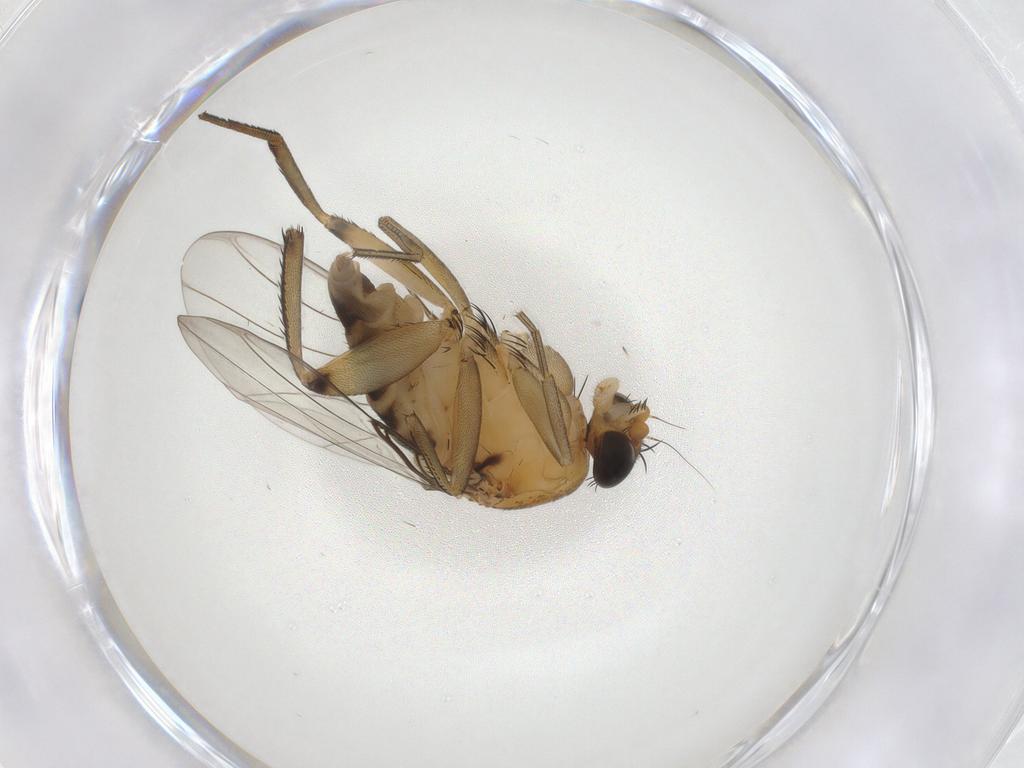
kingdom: Animalia
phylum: Arthropoda
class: Insecta
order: Diptera
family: Phoridae
